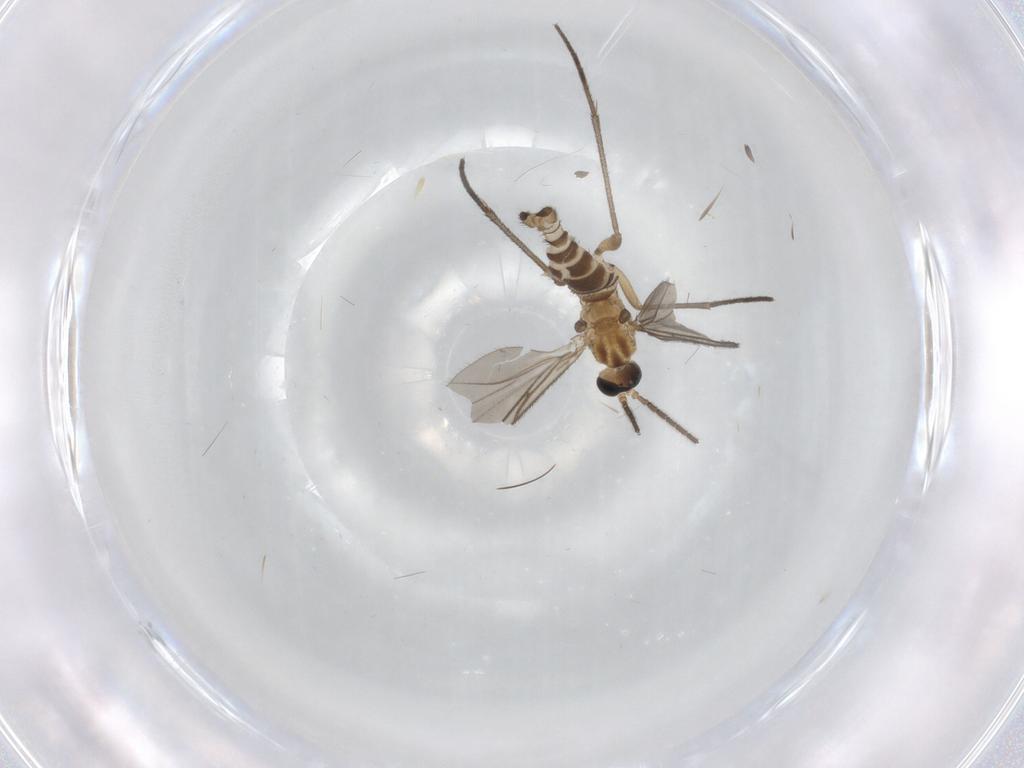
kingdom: Animalia
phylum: Arthropoda
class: Insecta
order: Diptera
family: Sciaridae
